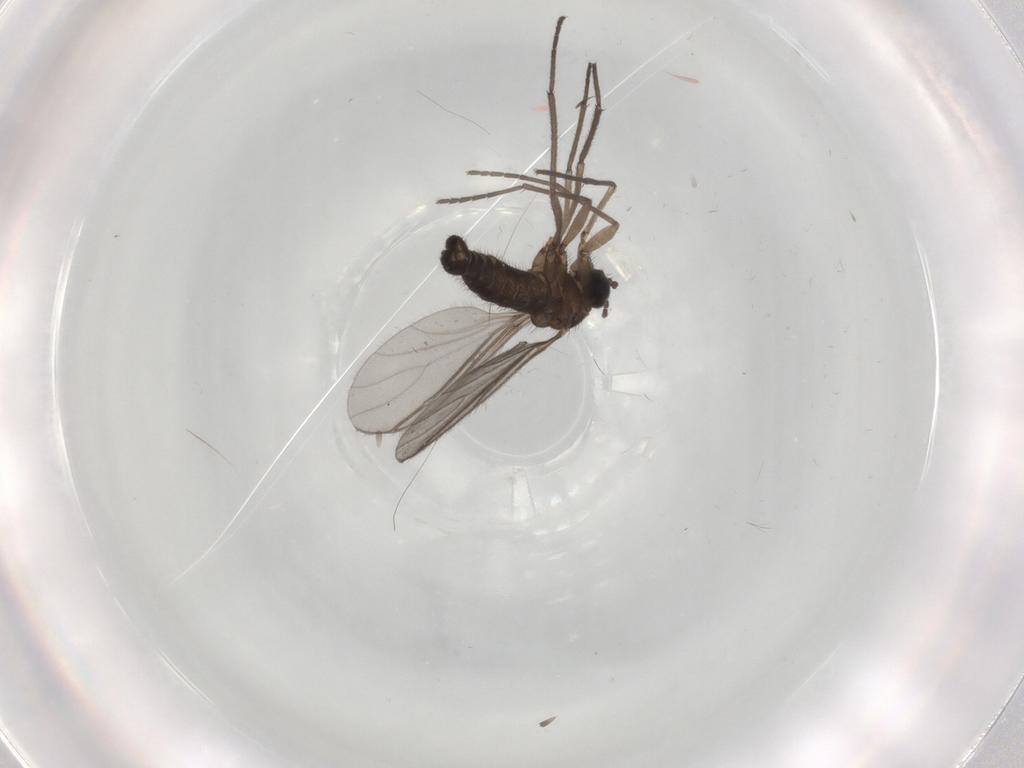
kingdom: Animalia
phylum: Arthropoda
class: Insecta
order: Diptera
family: Sciaridae
